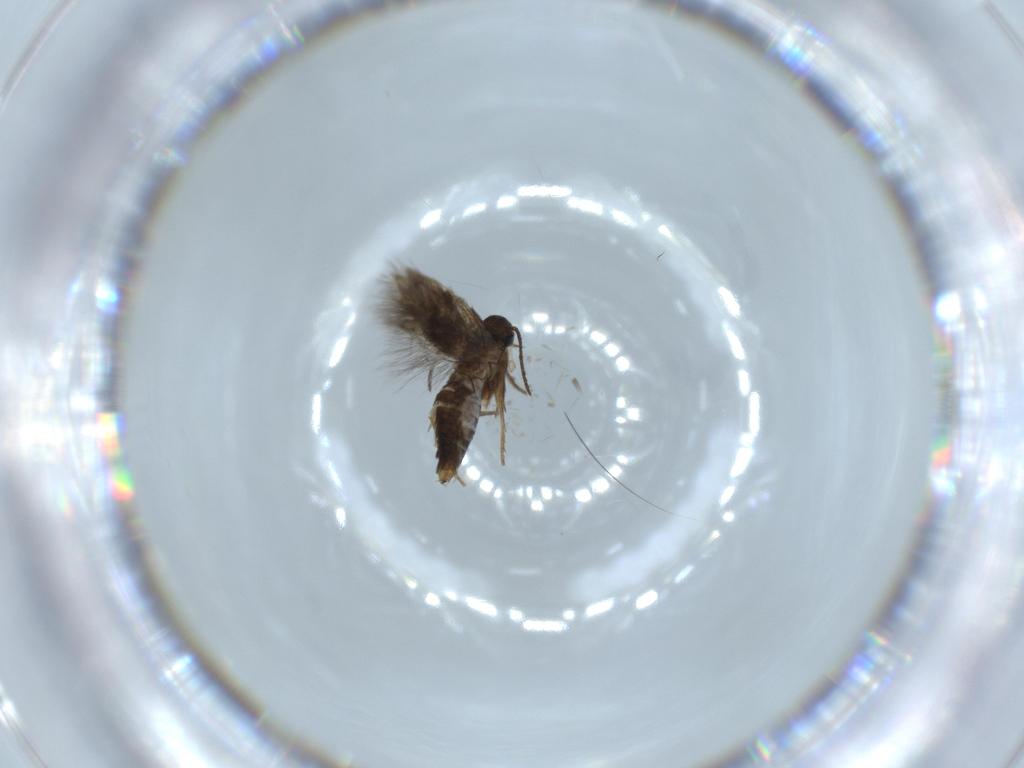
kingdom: Animalia
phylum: Arthropoda
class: Insecta
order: Lepidoptera
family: Heliozelidae
